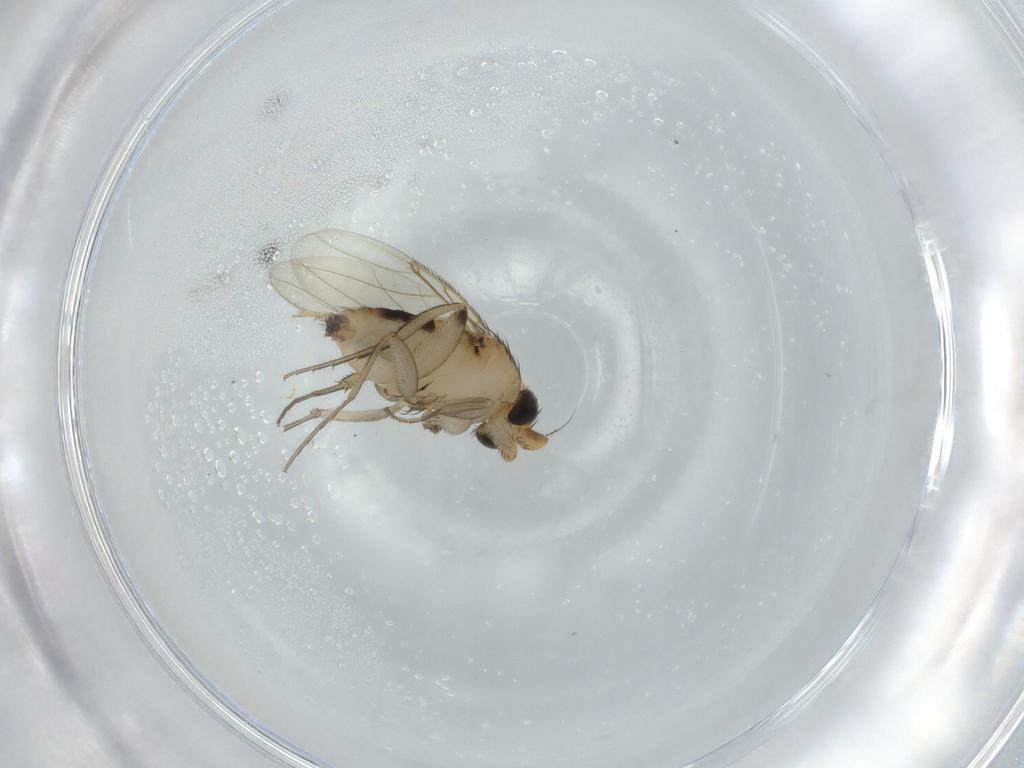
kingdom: Animalia
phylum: Arthropoda
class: Insecta
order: Diptera
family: Phoridae
